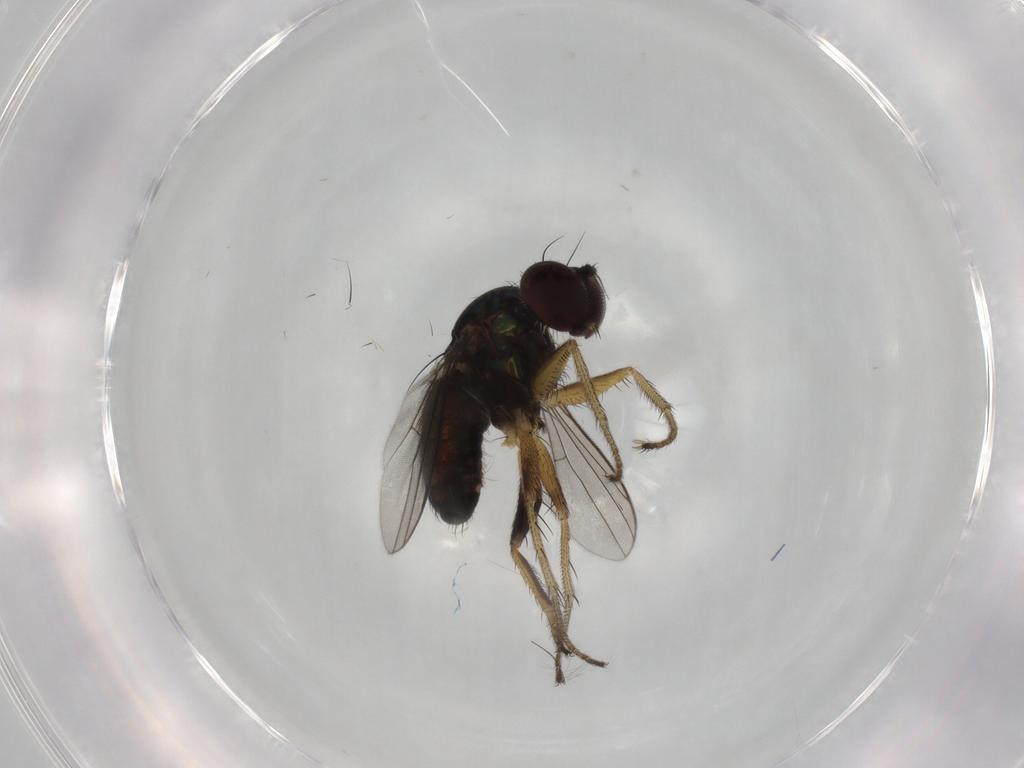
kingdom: Animalia
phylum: Arthropoda
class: Insecta
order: Diptera
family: Dolichopodidae
